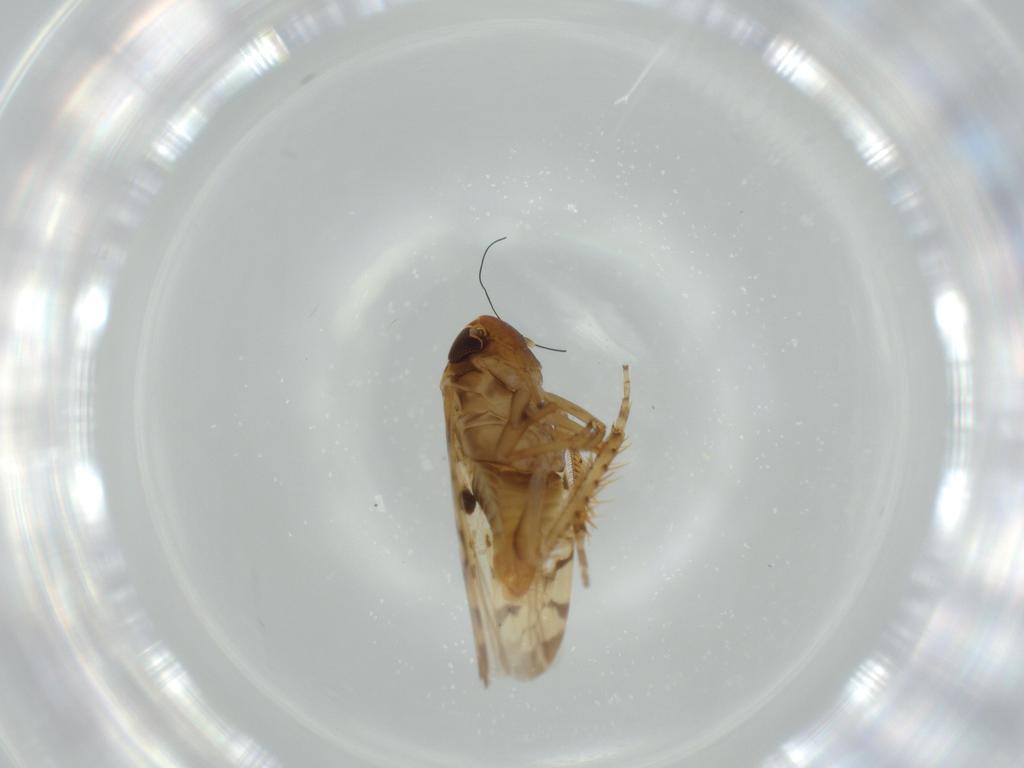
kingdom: Animalia
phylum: Arthropoda
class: Insecta
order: Hemiptera
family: Cicadellidae
